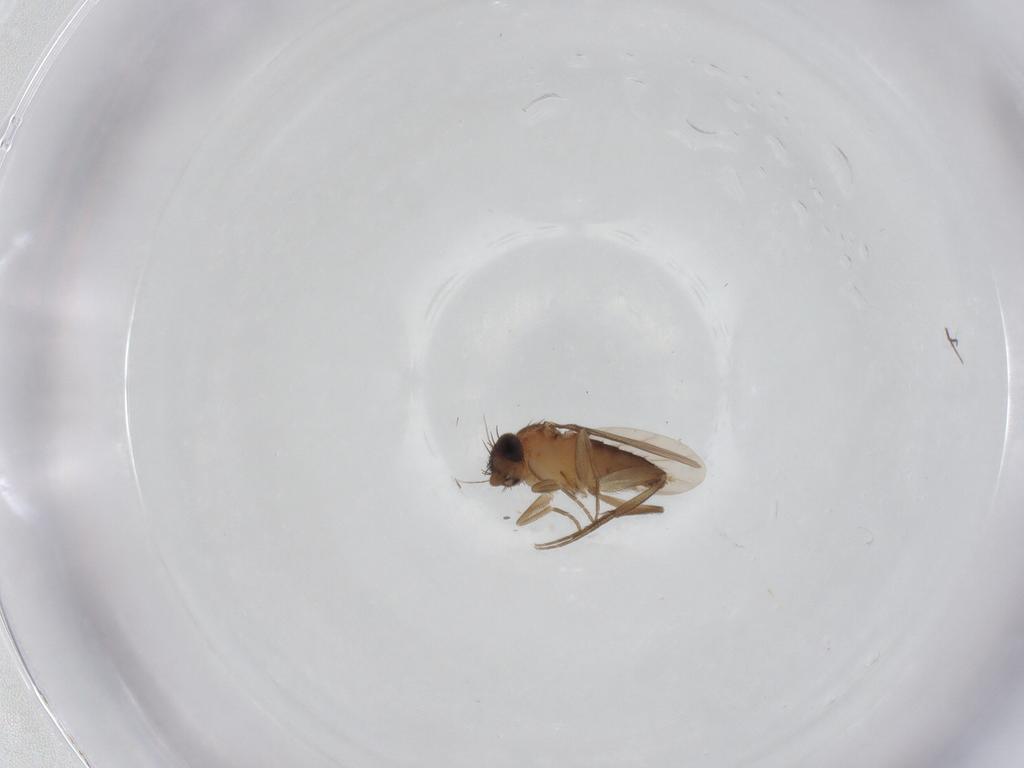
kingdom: Animalia
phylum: Arthropoda
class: Insecta
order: Diptera
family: Phoridae
